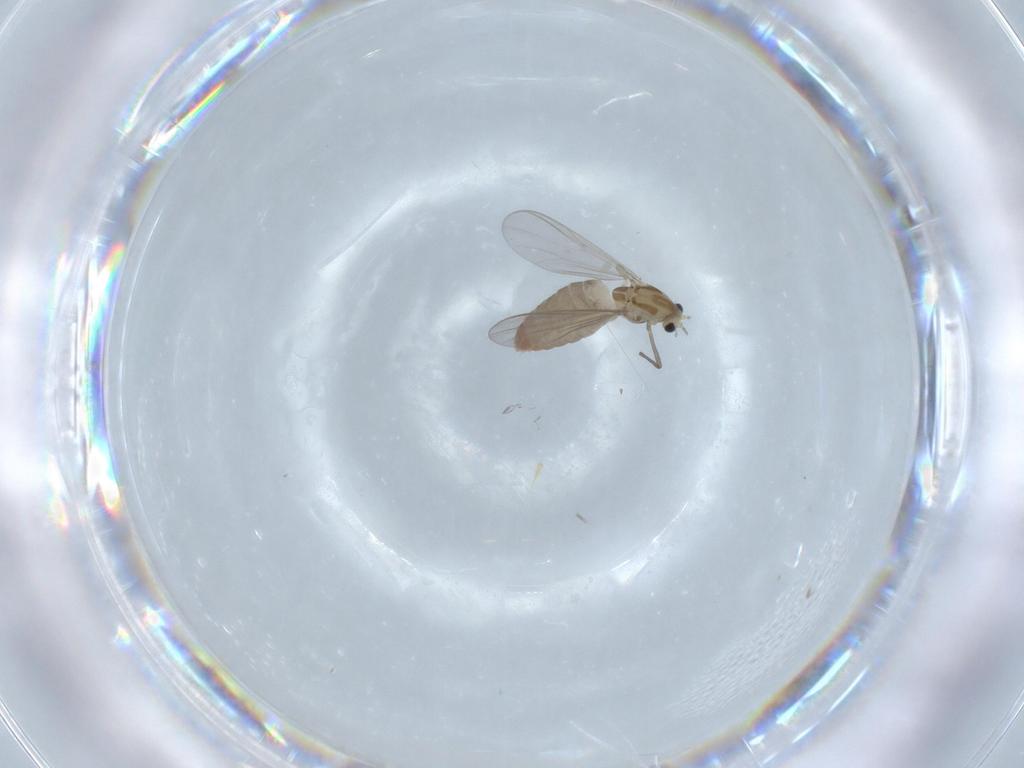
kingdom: Animalia
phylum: Arthropoda
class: Insecta
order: Diptera
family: Chironomidae
